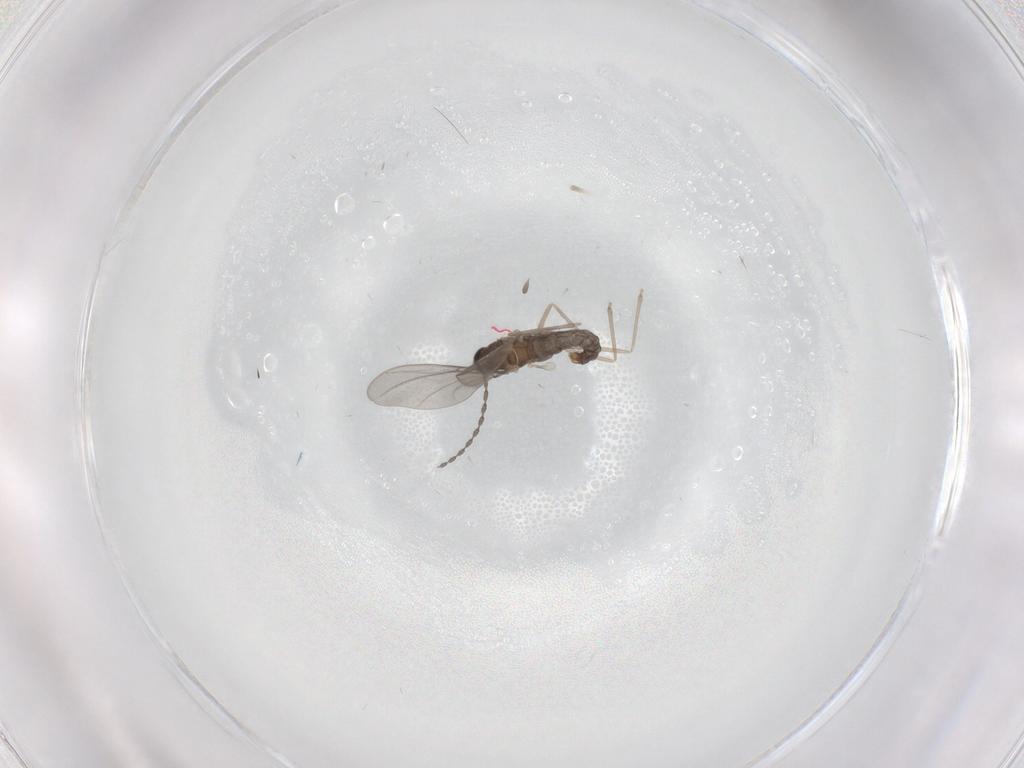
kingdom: Animalia
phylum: Arthropoda
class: Insecta
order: Diptera
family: Cecidomyiidae
